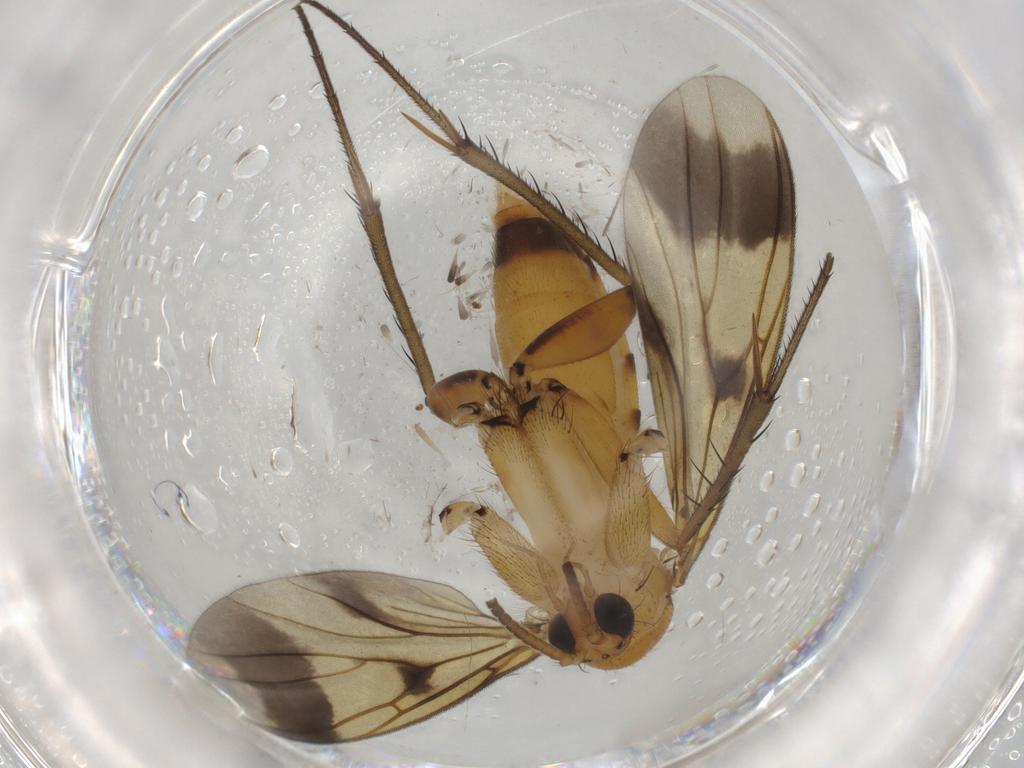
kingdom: Animalia
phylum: Arthropoda
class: Insecta
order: Diptera
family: Mycetophilidae
